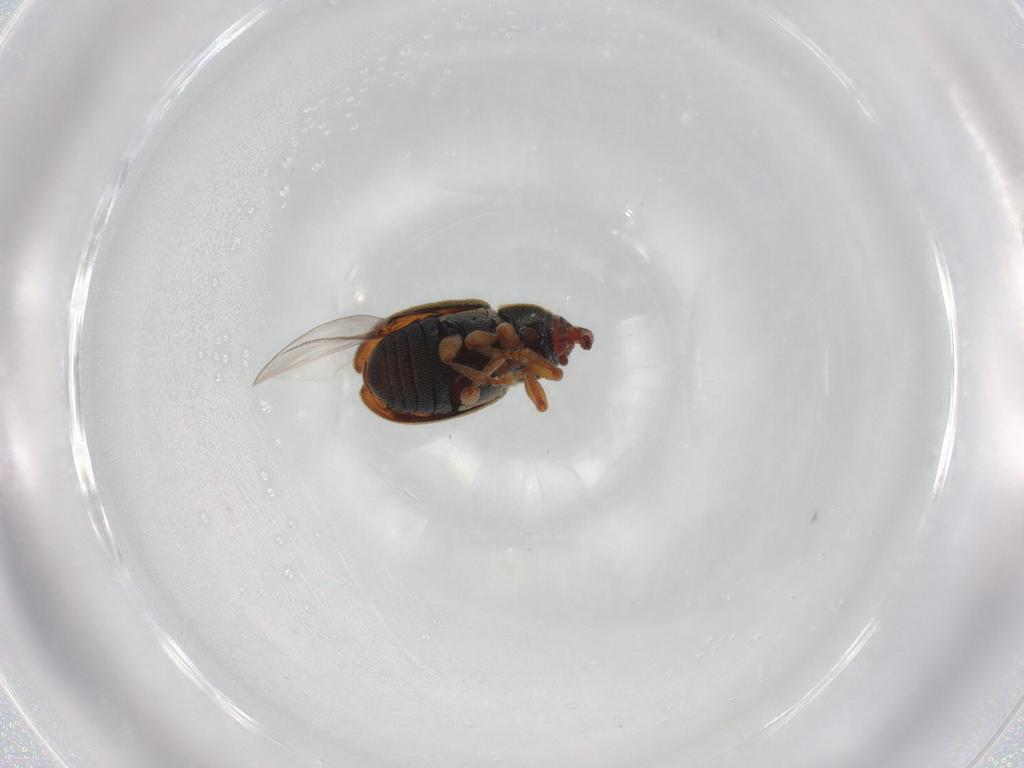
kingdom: Animalia
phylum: Arthropoda
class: Insecta
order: Coleoptera
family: Curculionidae
